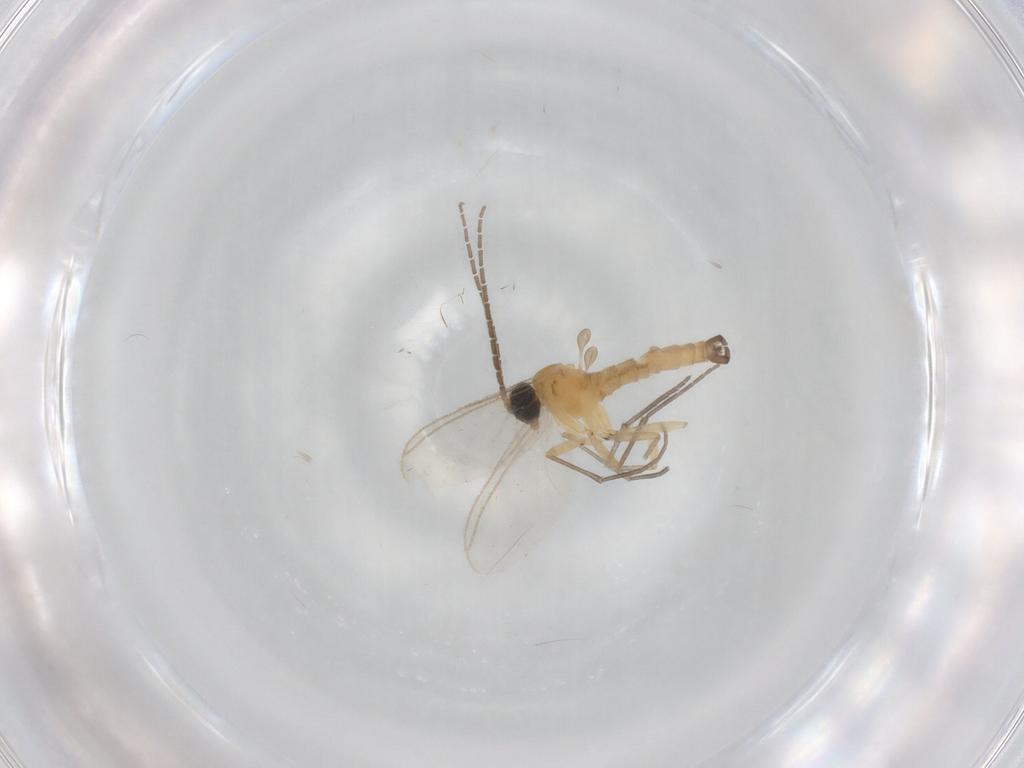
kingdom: Animalia
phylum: Arthropoda
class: Insecta
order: Diptera
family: Sciaridae
